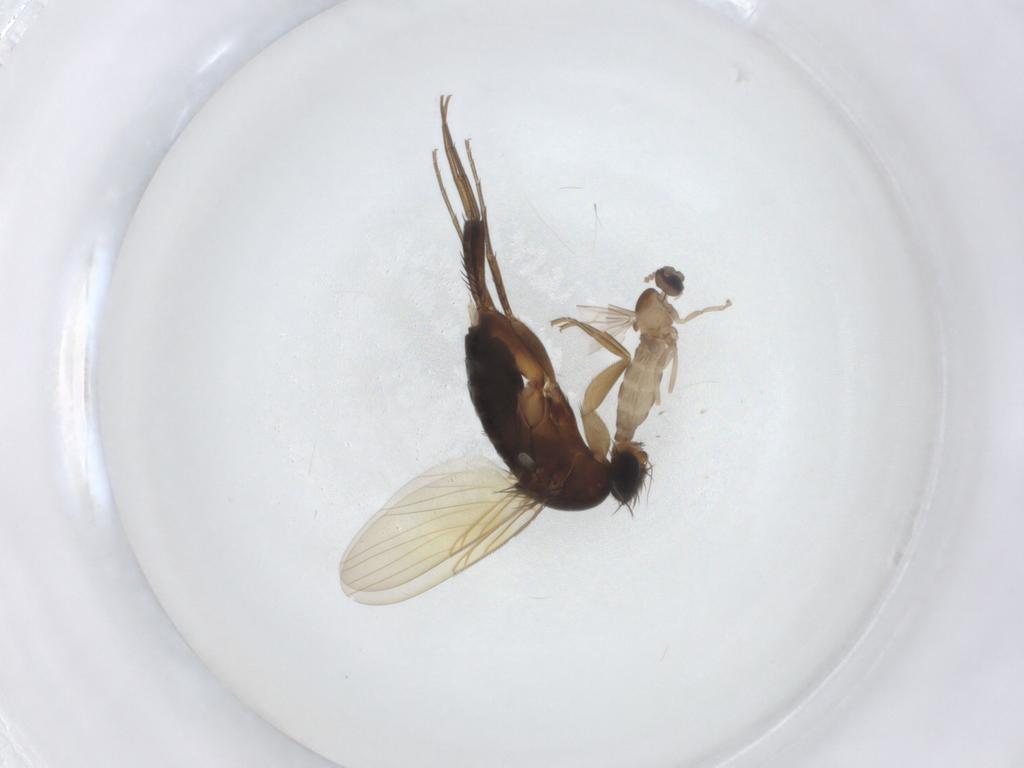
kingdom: Animalia
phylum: Arthropoda
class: Insecta
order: Diptera
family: Phoridae
